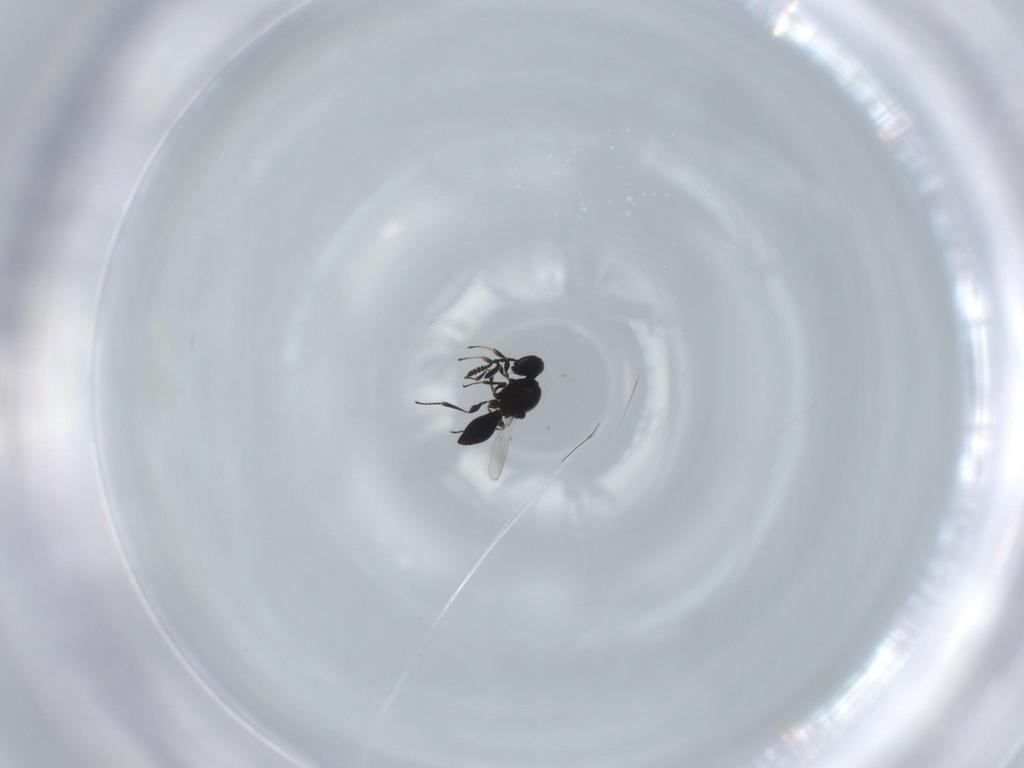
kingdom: Animalia
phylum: Arthropoda
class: Insecta
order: Hymenoptera
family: Platygastridae
